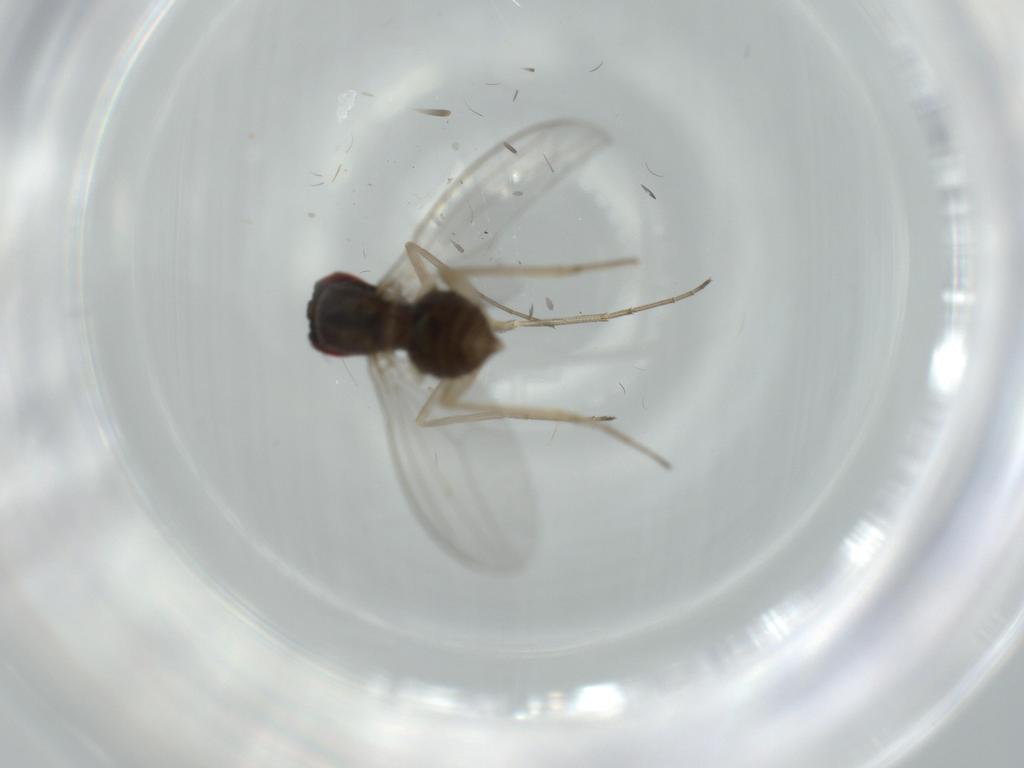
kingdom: Animalia
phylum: Arthropoda
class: Insecta
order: Diptera
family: Dolichopodidae
